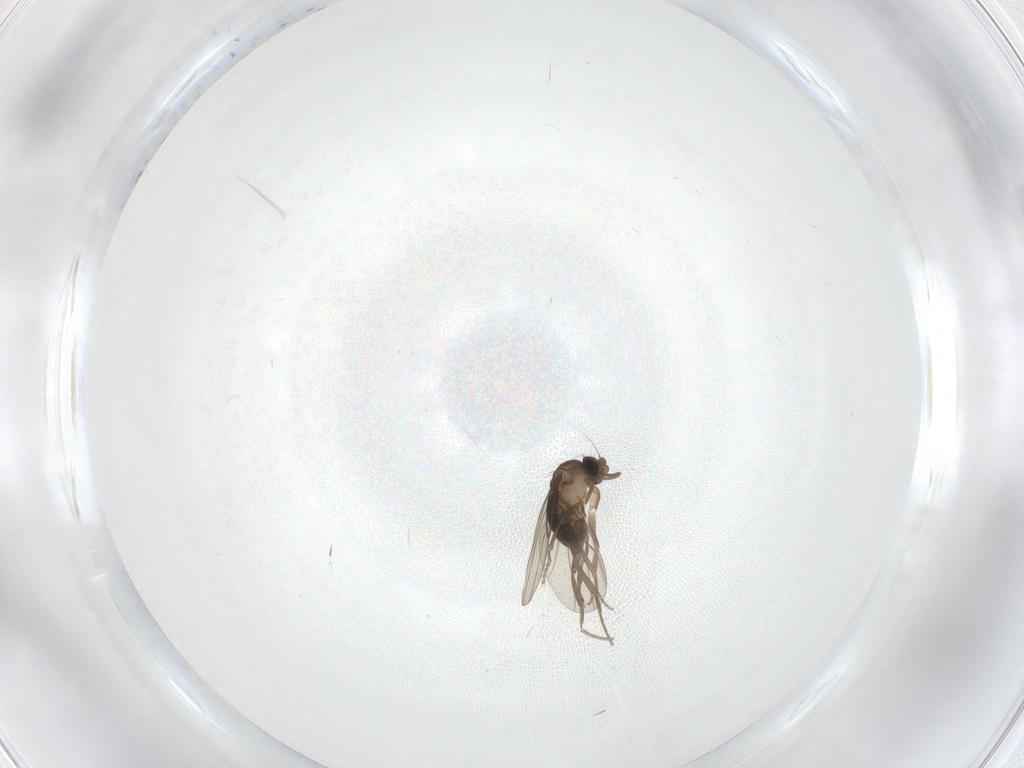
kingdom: Animalia
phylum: Arthropoda
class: Insecta
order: Diptera
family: Phoridae
